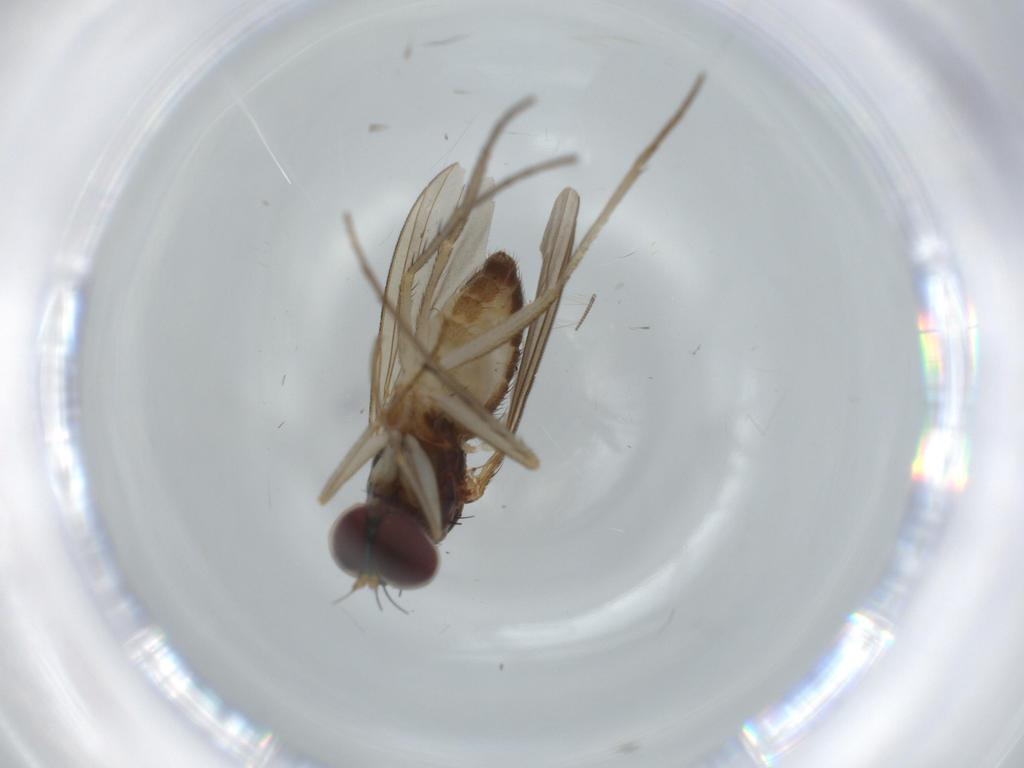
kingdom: Animalia
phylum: Arthropoda
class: Insecta
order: Diptera
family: Dolichopodidae
